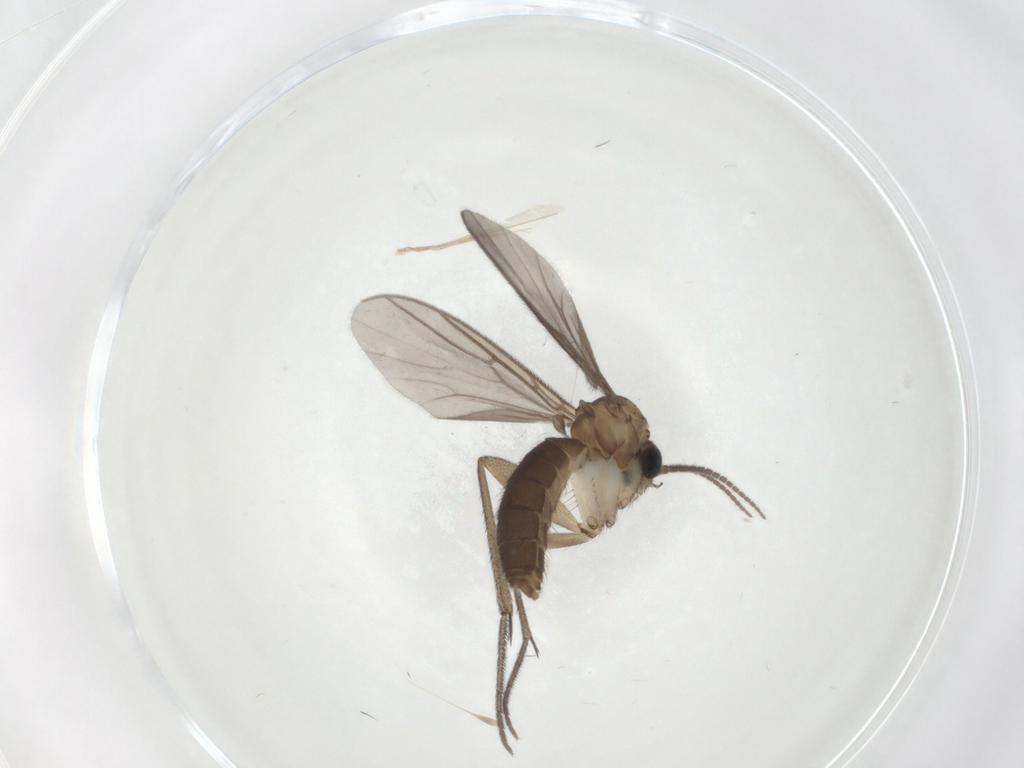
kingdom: Animalia
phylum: Arthropoda
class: Insecta
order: Diptera
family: Mycetophilidae
